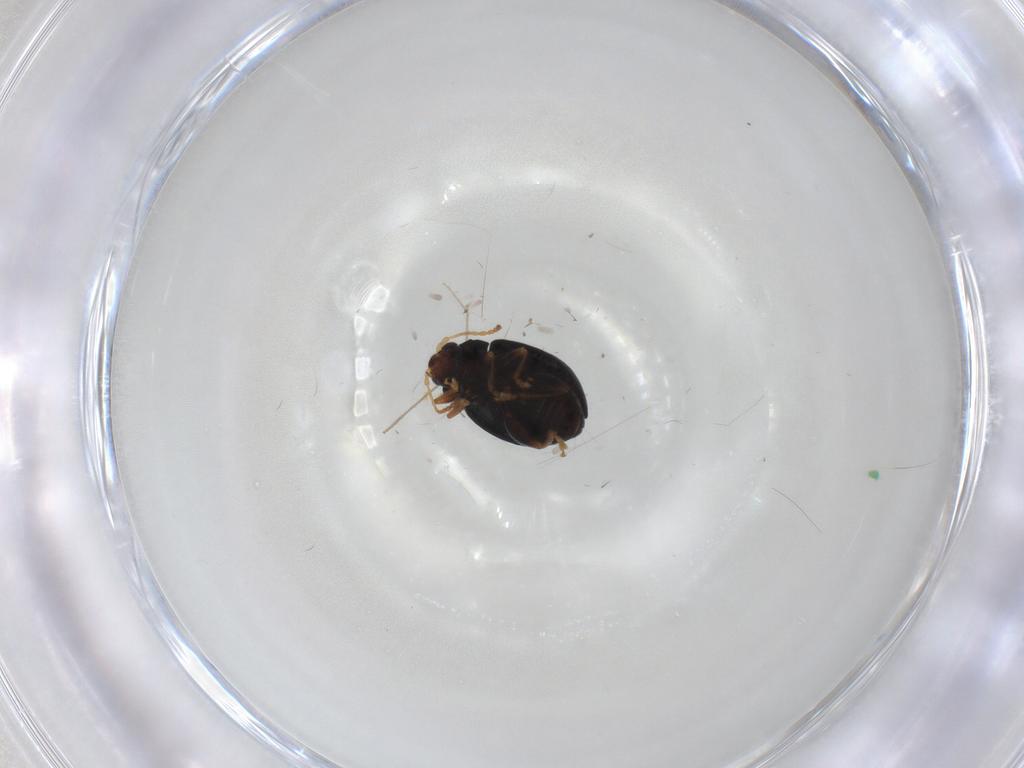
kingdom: Animalia
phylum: Arthropoda
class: Insecta
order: Coleoptera
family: Chrysomelidae
